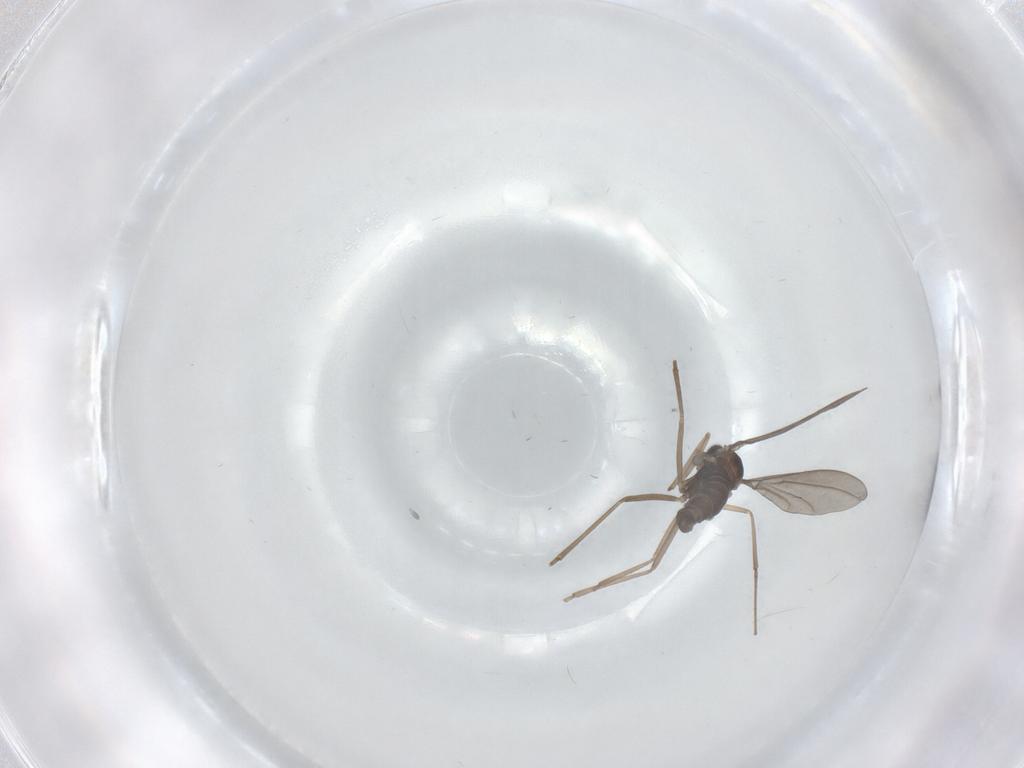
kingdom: Animalia
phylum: Arthropoda
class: Insecta
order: Diptera
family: Cecidomyiidae
